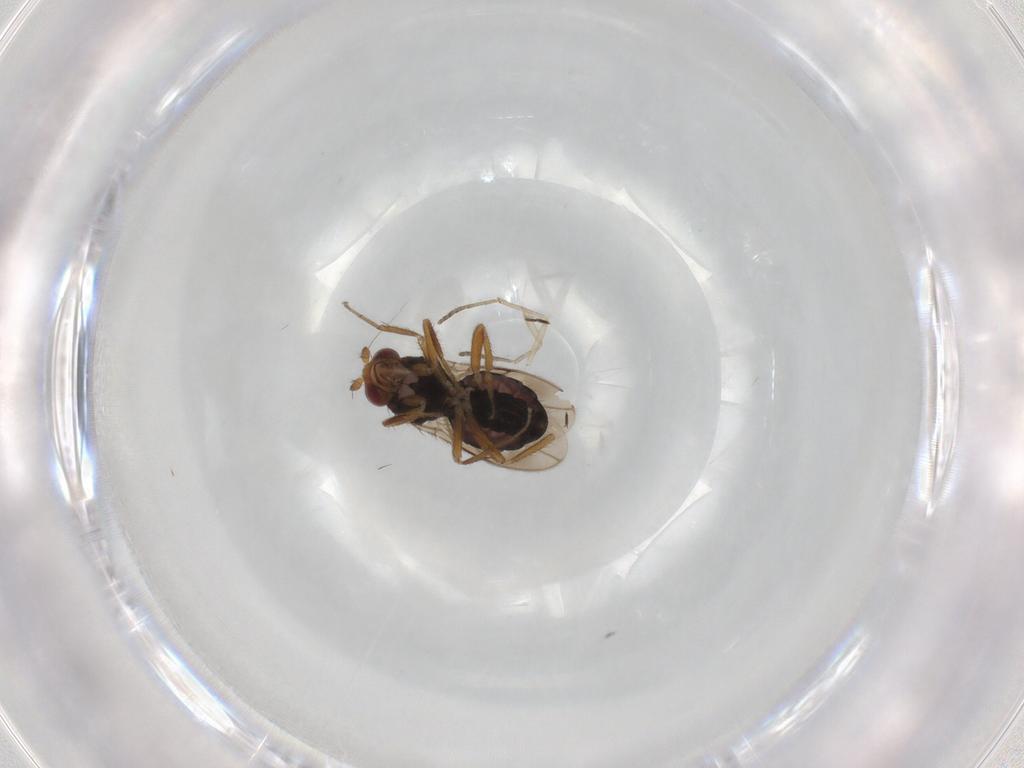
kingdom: Animalia
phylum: Arthropoda
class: Insecta
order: Diptera
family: Sphaeroceridae
